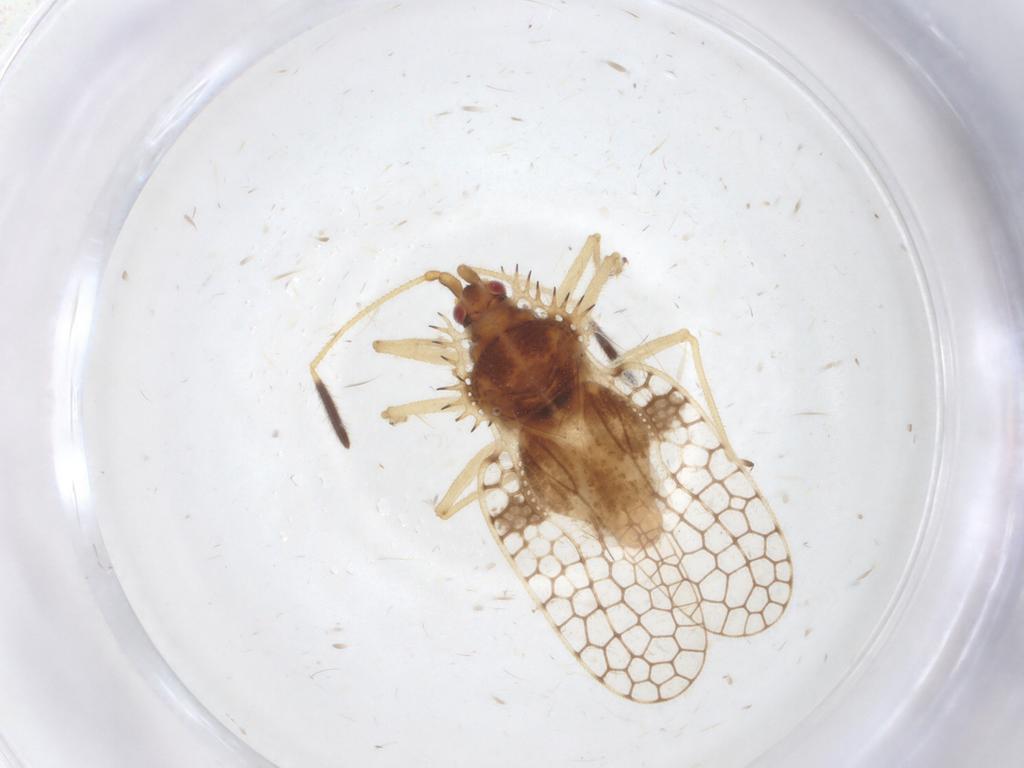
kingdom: Animalia
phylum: Arthropoda
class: Insecta
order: Hemiptera
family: Tingidae
